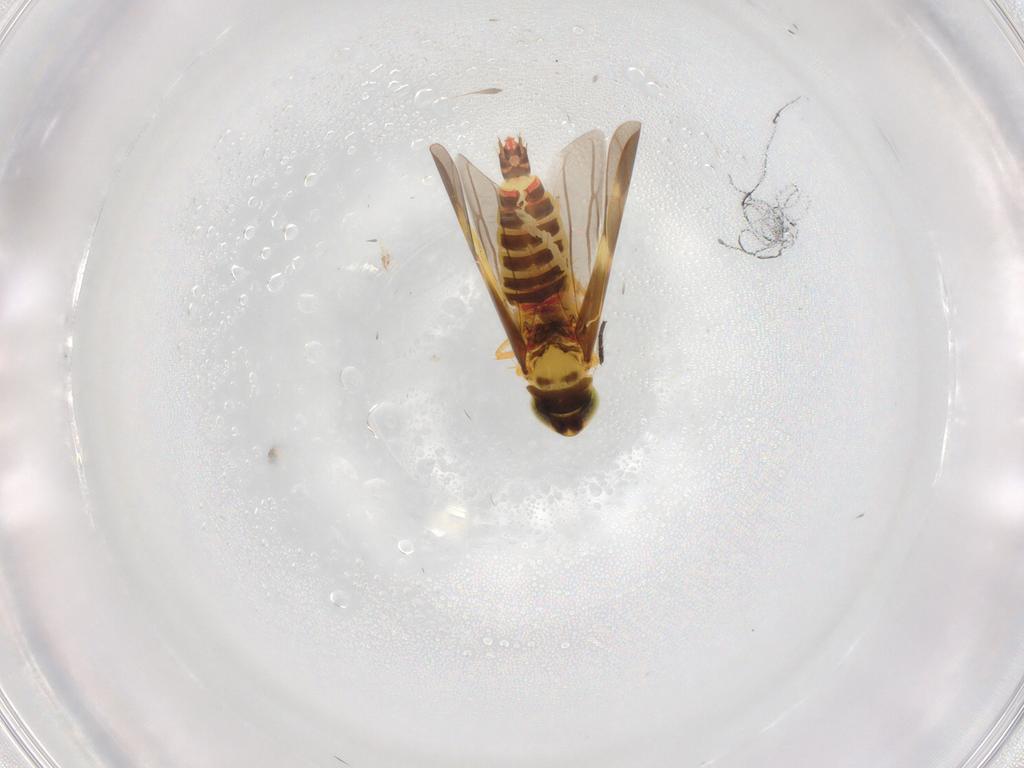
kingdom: Animalia
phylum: Arthropoda
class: Insecta
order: Hemiptera
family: Cicadellidae
